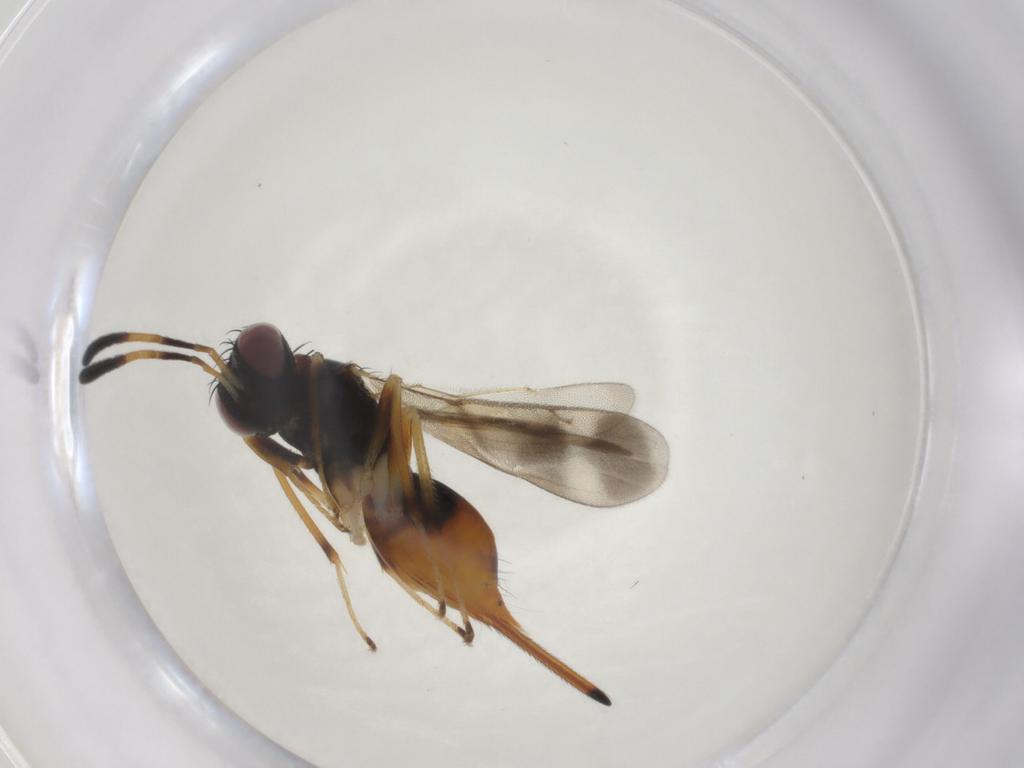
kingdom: Animalia
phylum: Arthropoda
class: Insecta
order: Hymenoptera
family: Diparidae
